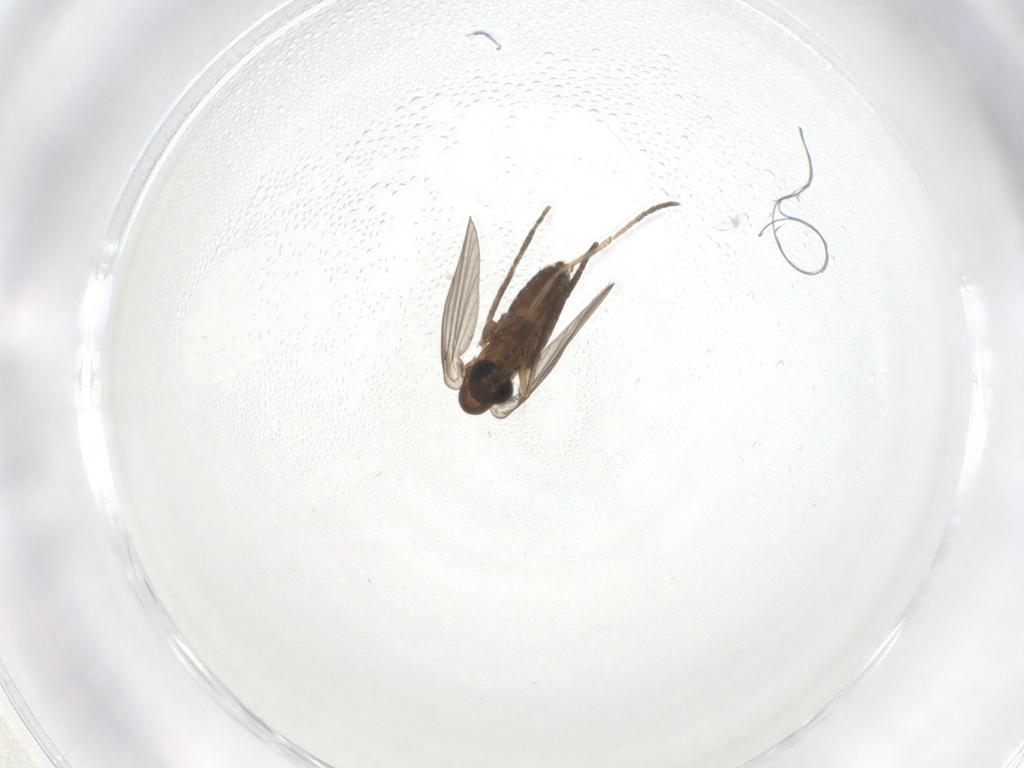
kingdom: Animalia
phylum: Arthropoda
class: Insecta
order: Diptera
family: Psychodidae
